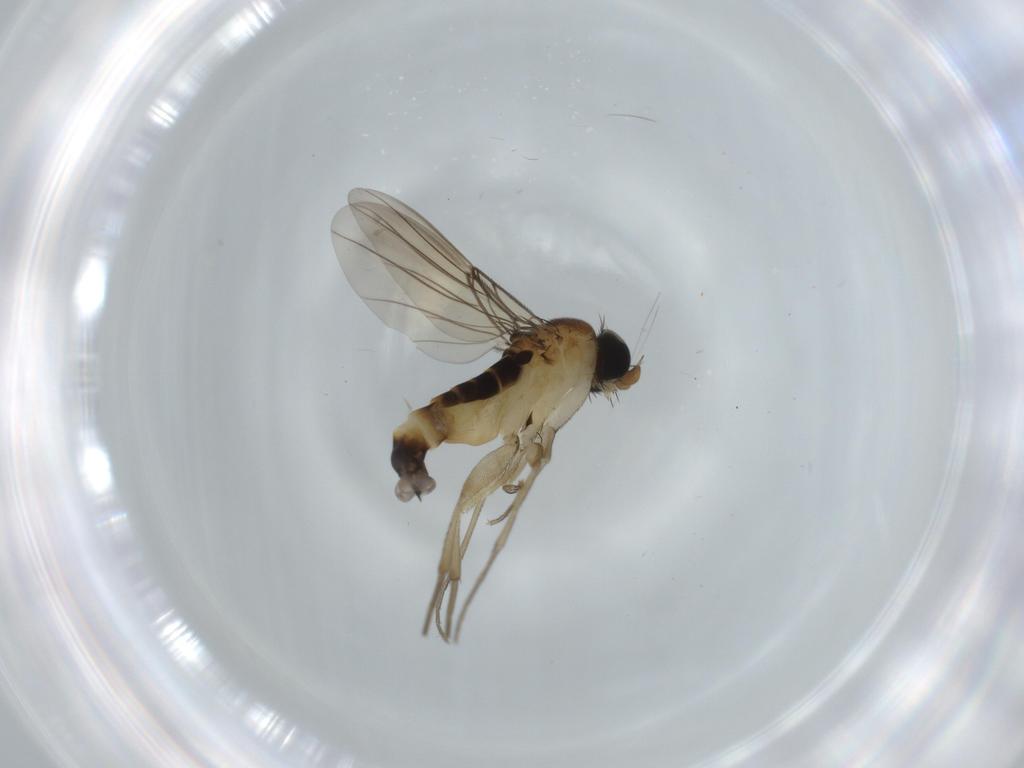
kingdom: Animalia
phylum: Arthropoda
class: Insecta
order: Diptera
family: Phoridae
